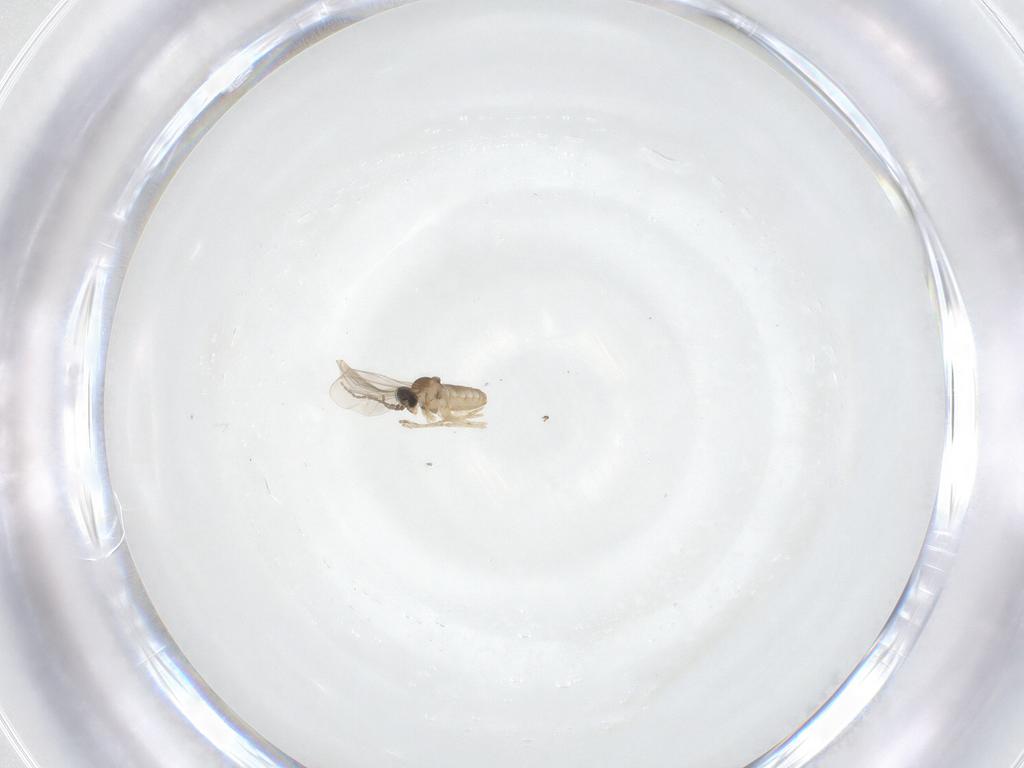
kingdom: Animalia
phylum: Arthropoda
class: Insecta
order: Diptera
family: Cecidomyiidae
